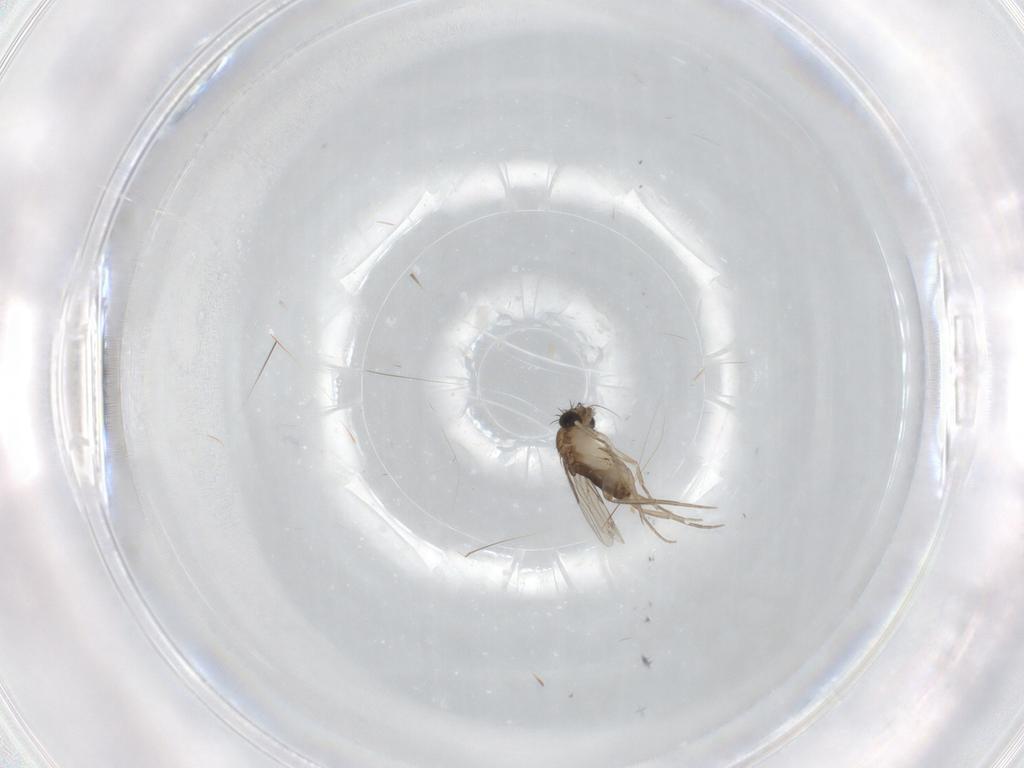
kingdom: Animalia
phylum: Arthropoda
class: Insecta
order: Diptera
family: Phoridae
